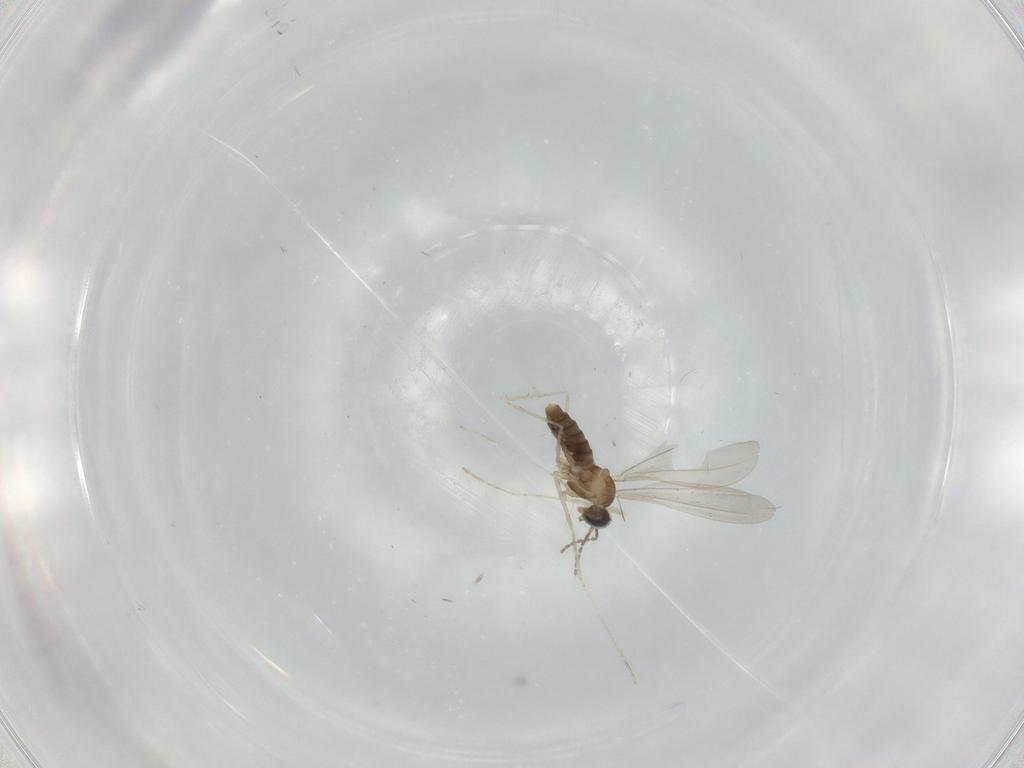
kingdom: Animalia
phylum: Arthropoda
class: Insecta
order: Diptera
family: Cecidomyiidae
